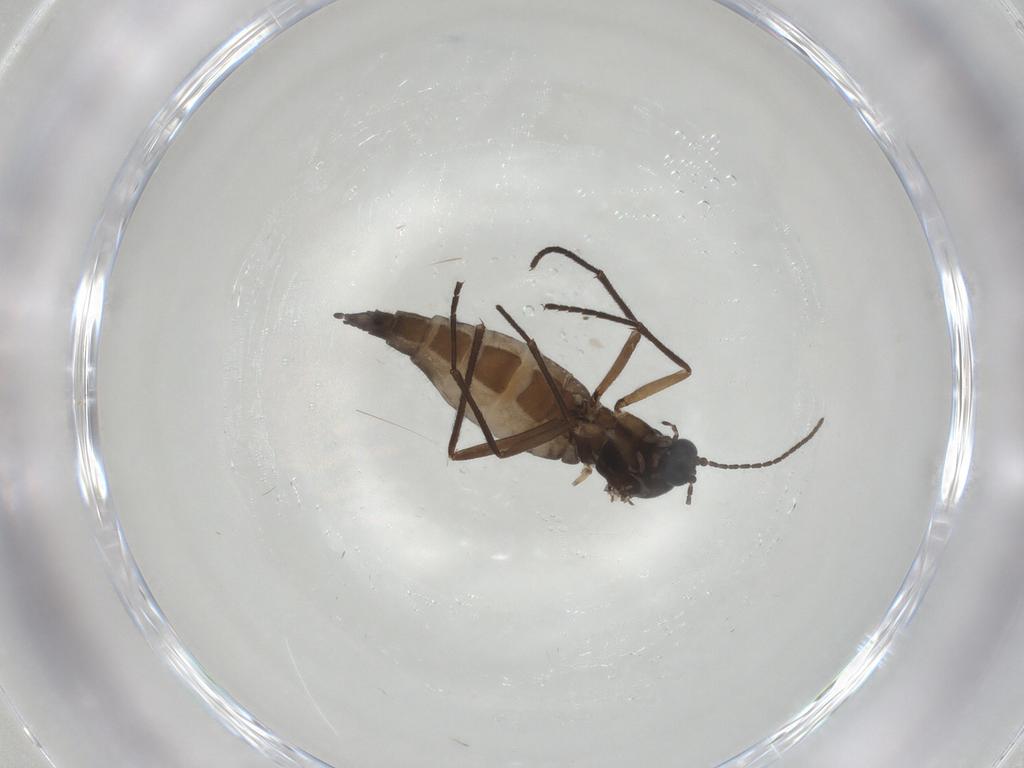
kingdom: Animalia
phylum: Arthropoda
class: Insecta
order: Diptera
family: Sciaridae
